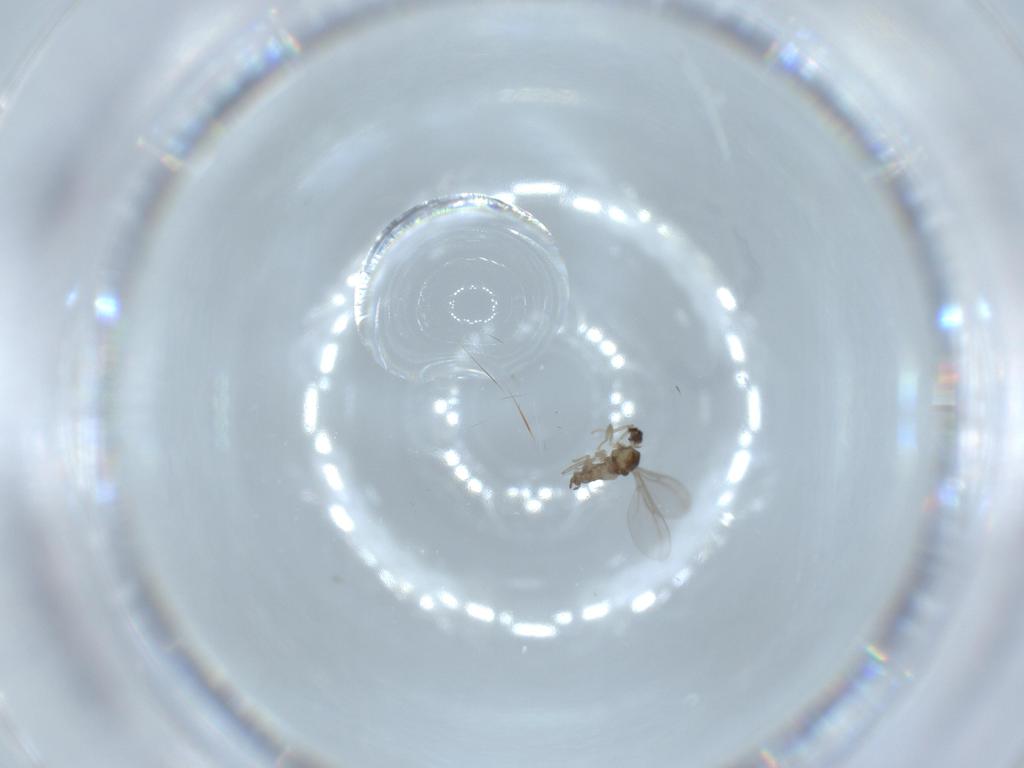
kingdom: Animalia
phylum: Arthropoda
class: Insecta
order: Diptera
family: Cecidomyiidae
